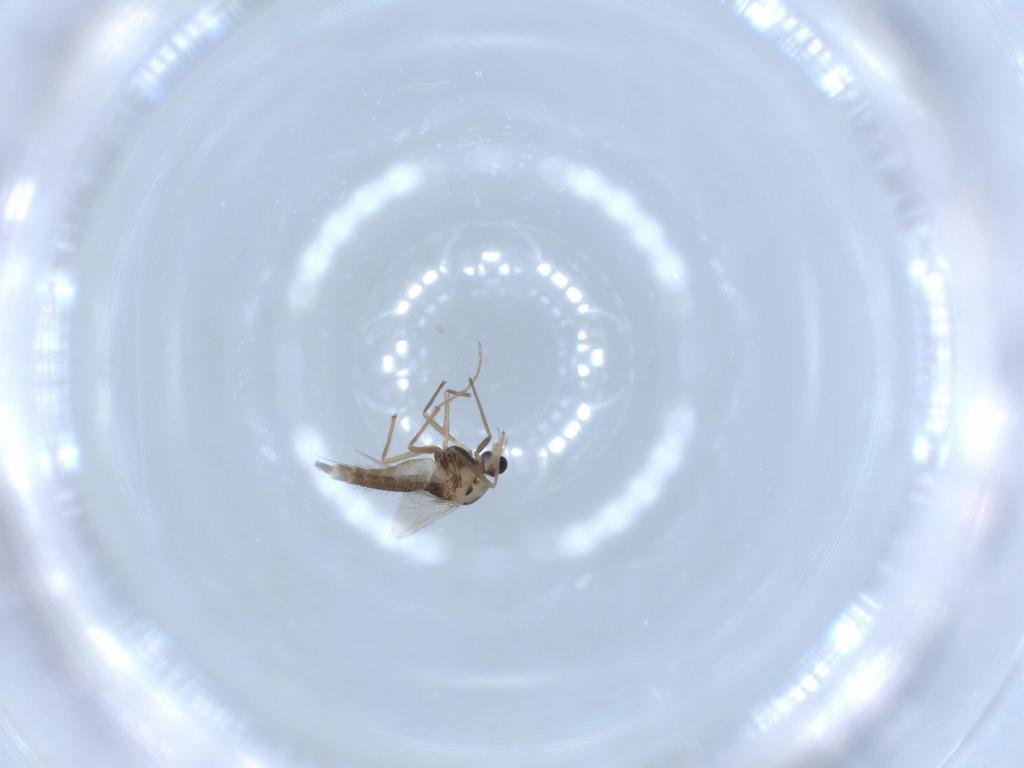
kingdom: Animalia
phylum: Arthropoda
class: Insecta
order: Diptera
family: Chironomidae
